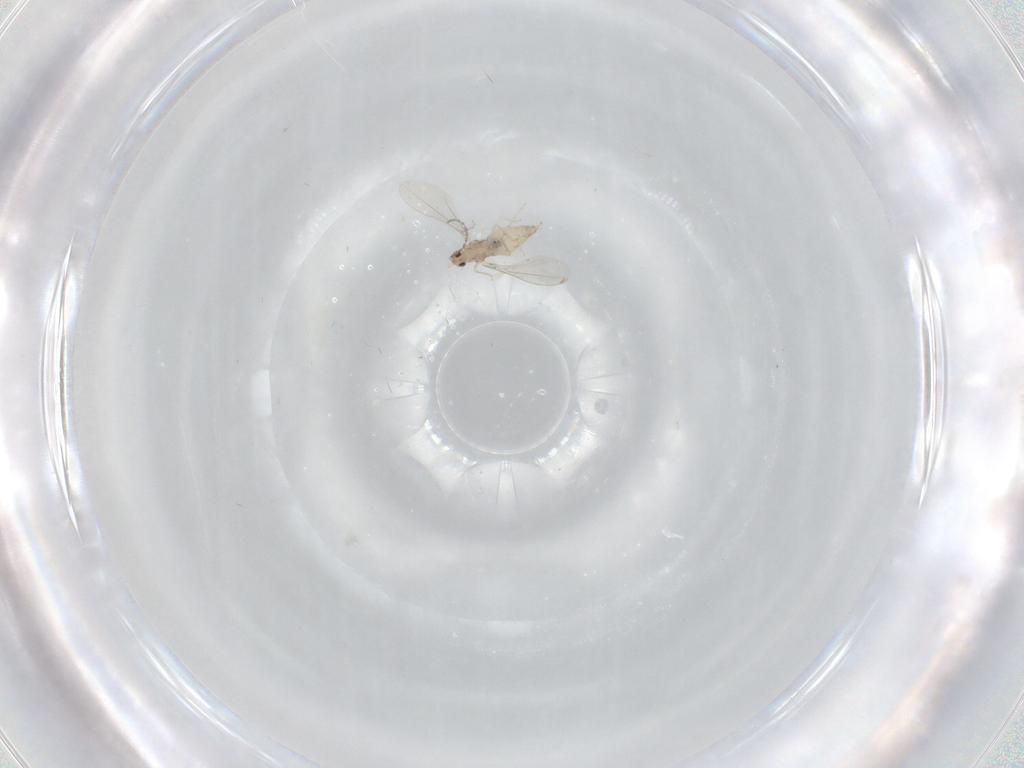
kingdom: Animalia
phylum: Arthropoda
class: Insecta
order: Diptera
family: Cecidomyiidae
